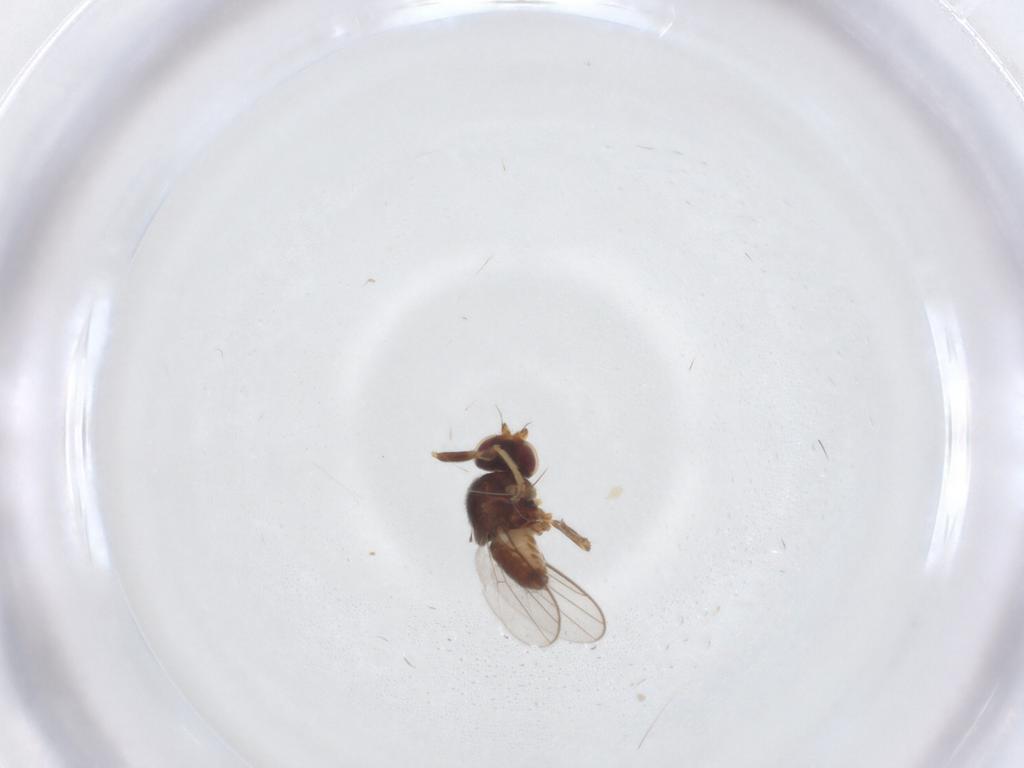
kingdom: Animalia
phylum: Arthropoda
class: Insecta
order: Diptera
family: Chloropidae
